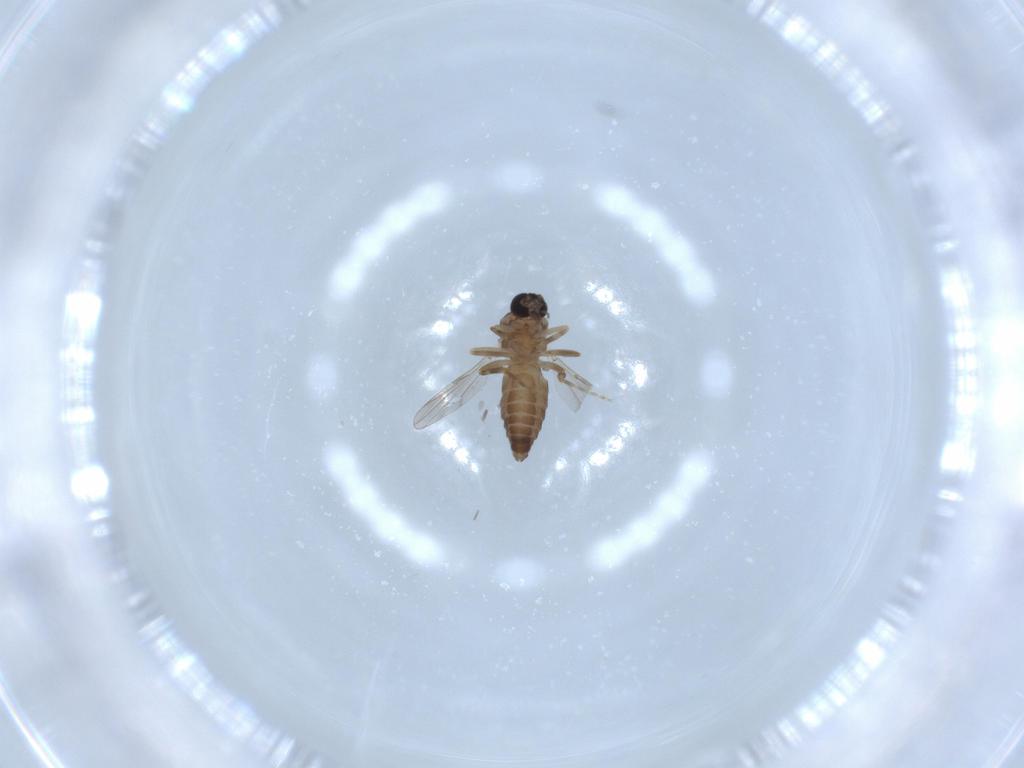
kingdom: Animalia
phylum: Arthropoda
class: Insecta
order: Diptera
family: Ceratopogonidae
